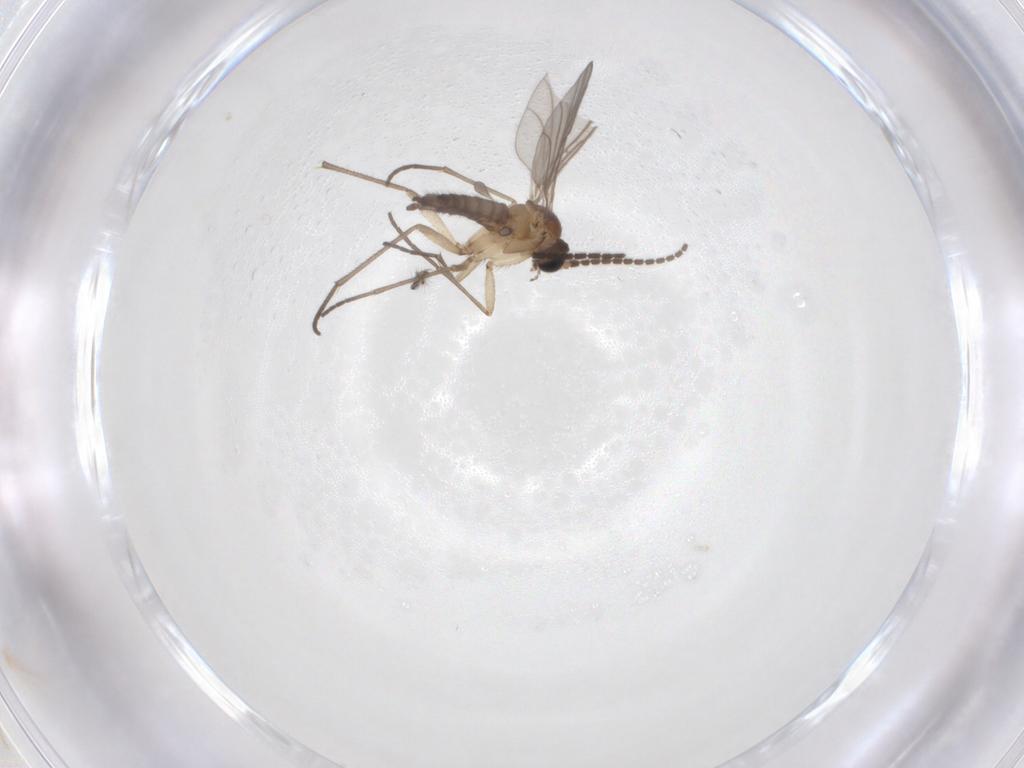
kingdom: Animalia
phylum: Arthropoda
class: Insecta
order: Diptera
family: Sciaridae
